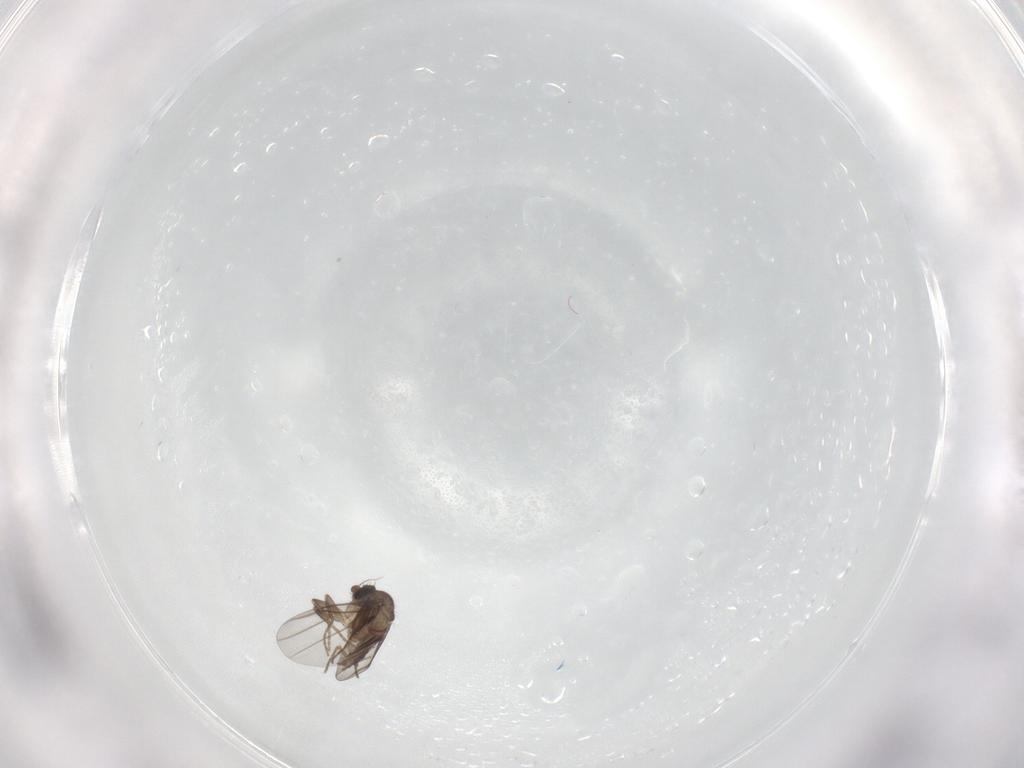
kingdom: Animalia
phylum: Arthropoda
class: Insecta
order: Diptera
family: Phoridae
